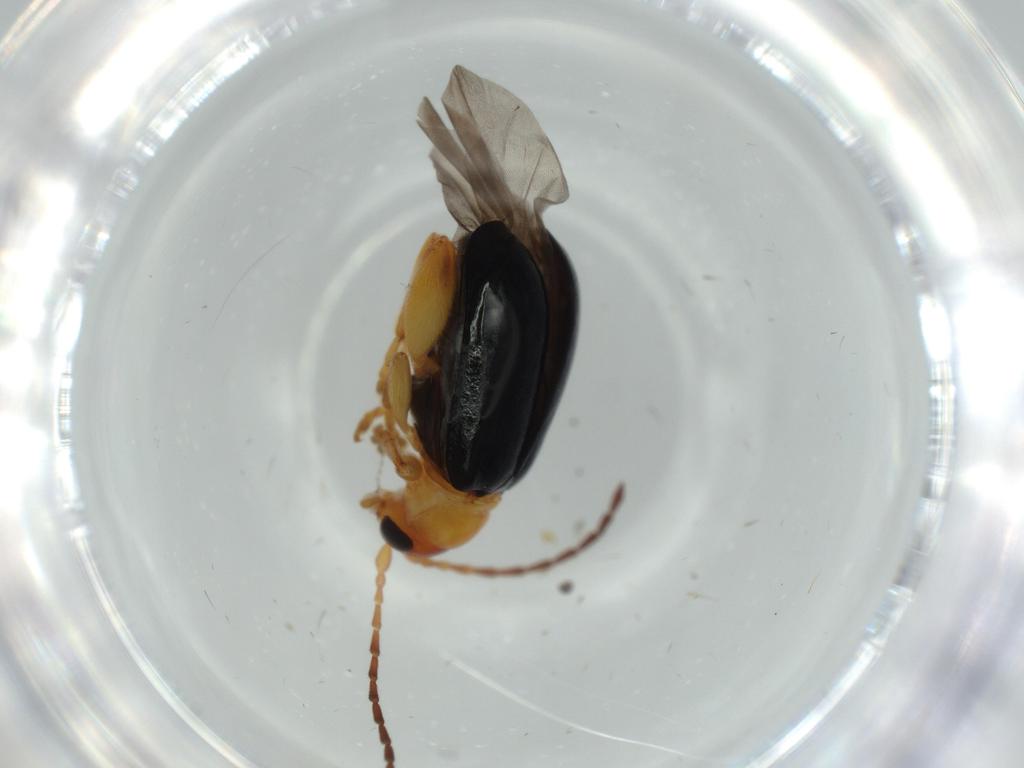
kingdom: Animalia
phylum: Arthropoda
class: Insecta
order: Coleoptera
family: Chrysomelidae
